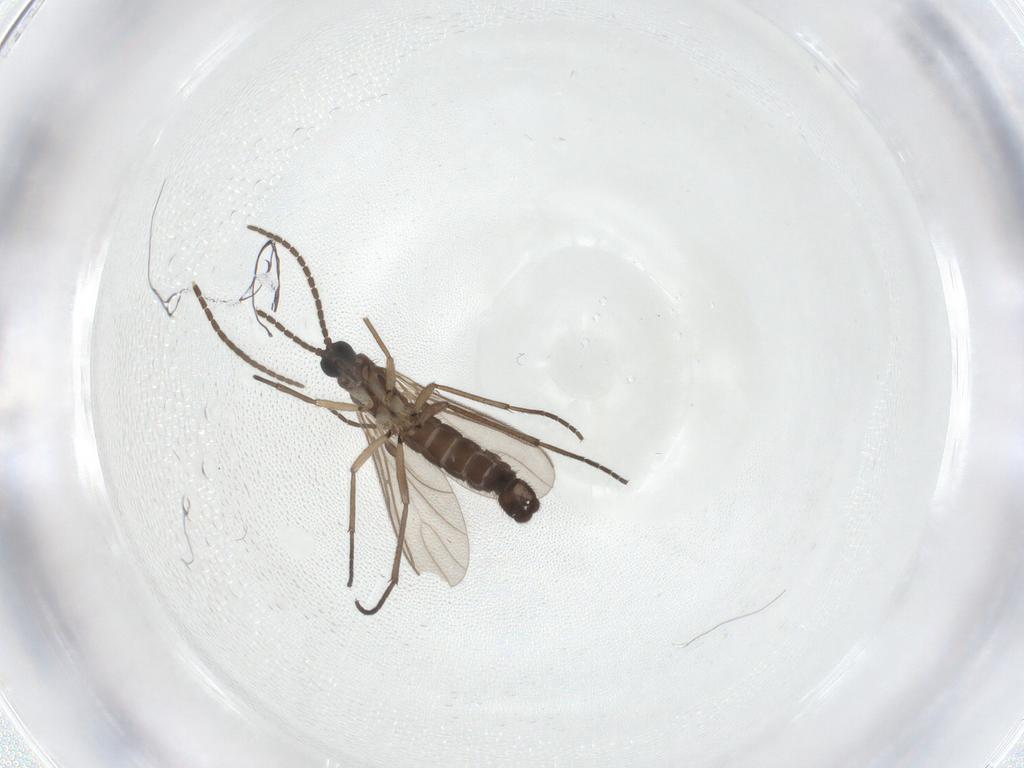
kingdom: Animalia
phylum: Arthropoda
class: Insecta
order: Diptera
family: Sciaridae
